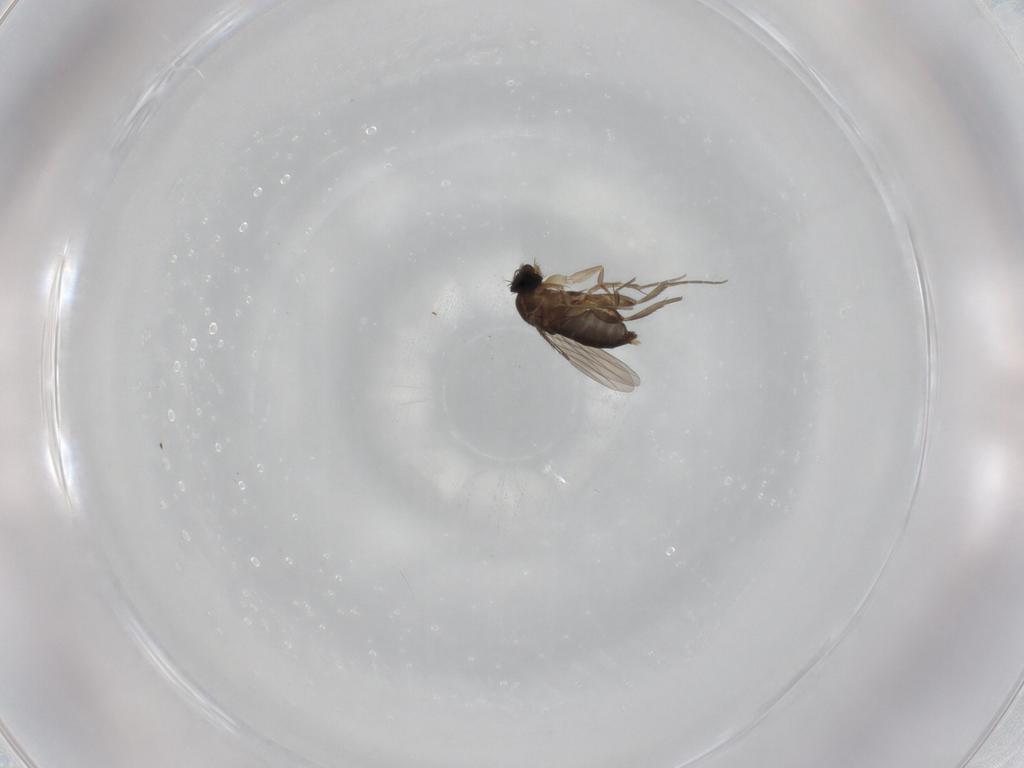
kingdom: Animalia
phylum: Arthropoda
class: Insecta
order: Diptera
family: Phoridae
